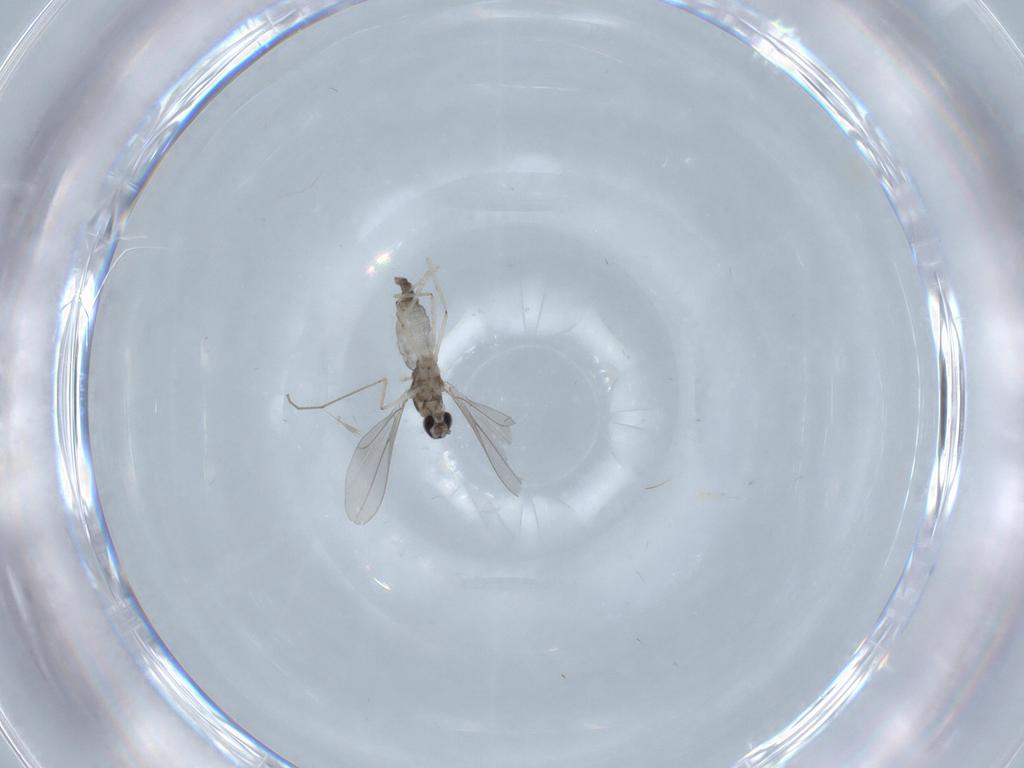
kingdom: Animalia
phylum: Arthropoda
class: Insecta
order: Diptera
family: Cecidomyiidae
